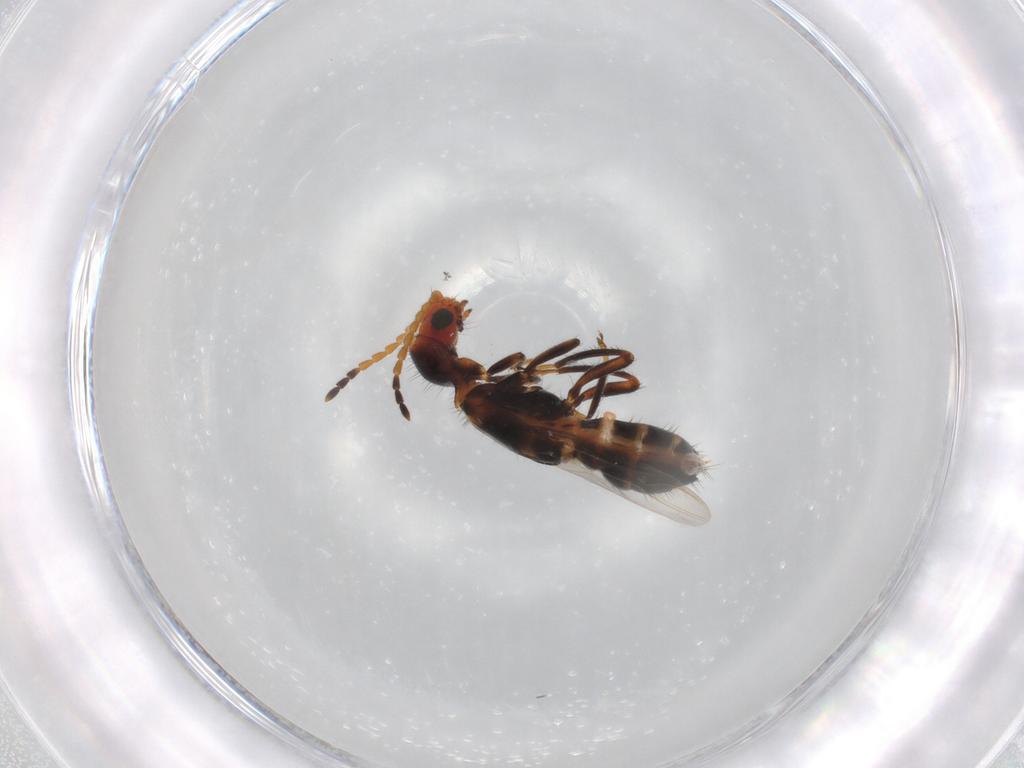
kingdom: Animalia
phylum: Arthropoda
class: Insecta
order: Coleoptera
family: Melyridae
